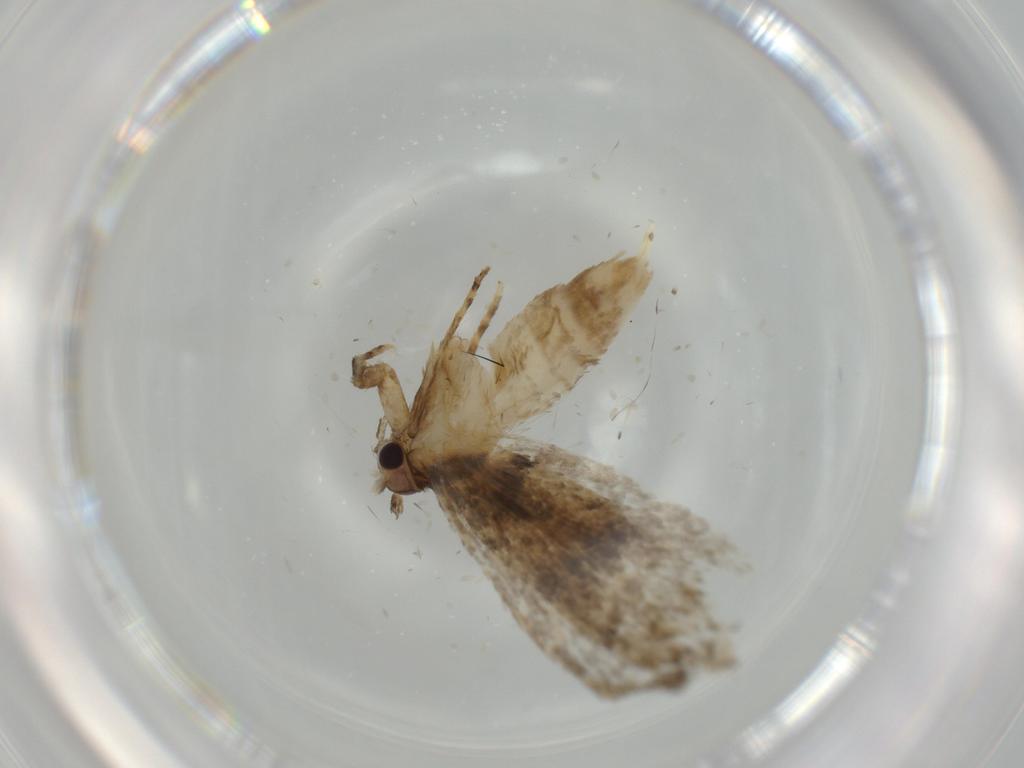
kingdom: Animalia
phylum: Arthropoda
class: Insecta
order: Lepidoptera
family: Tineidae
